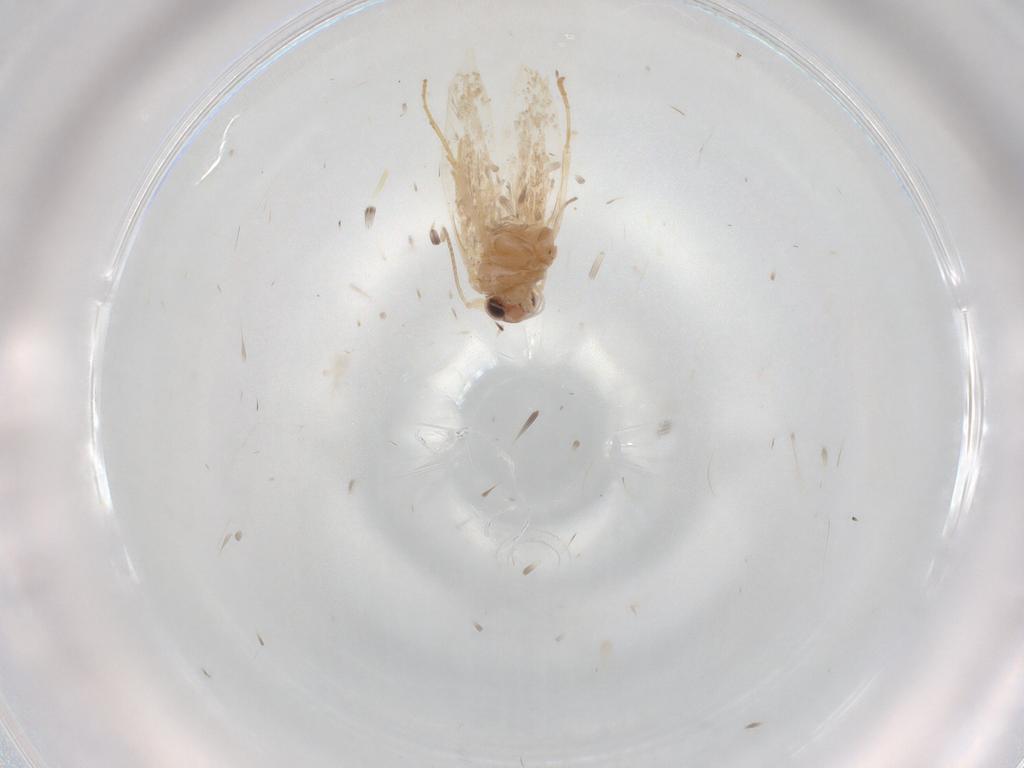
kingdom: Animalia
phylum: Arthropoda
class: Insecta
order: Lepidoptera
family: Bucculatricidae
